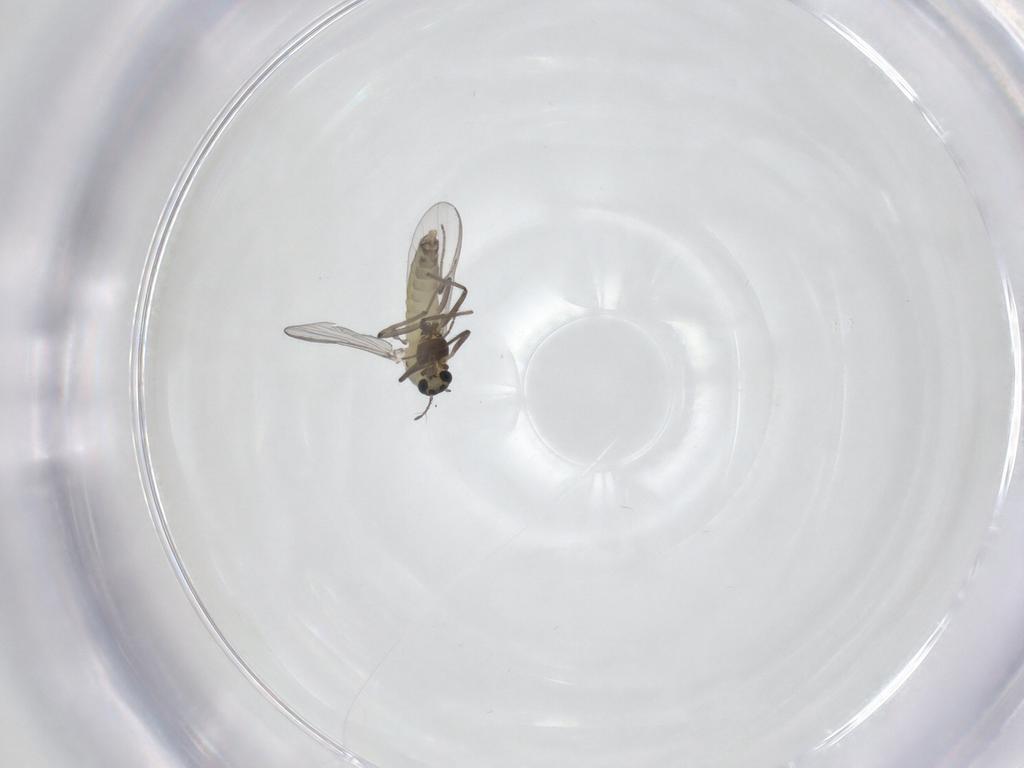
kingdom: Animalia
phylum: Arthropoda
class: Insecta
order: Diptera
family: Chironomidae
